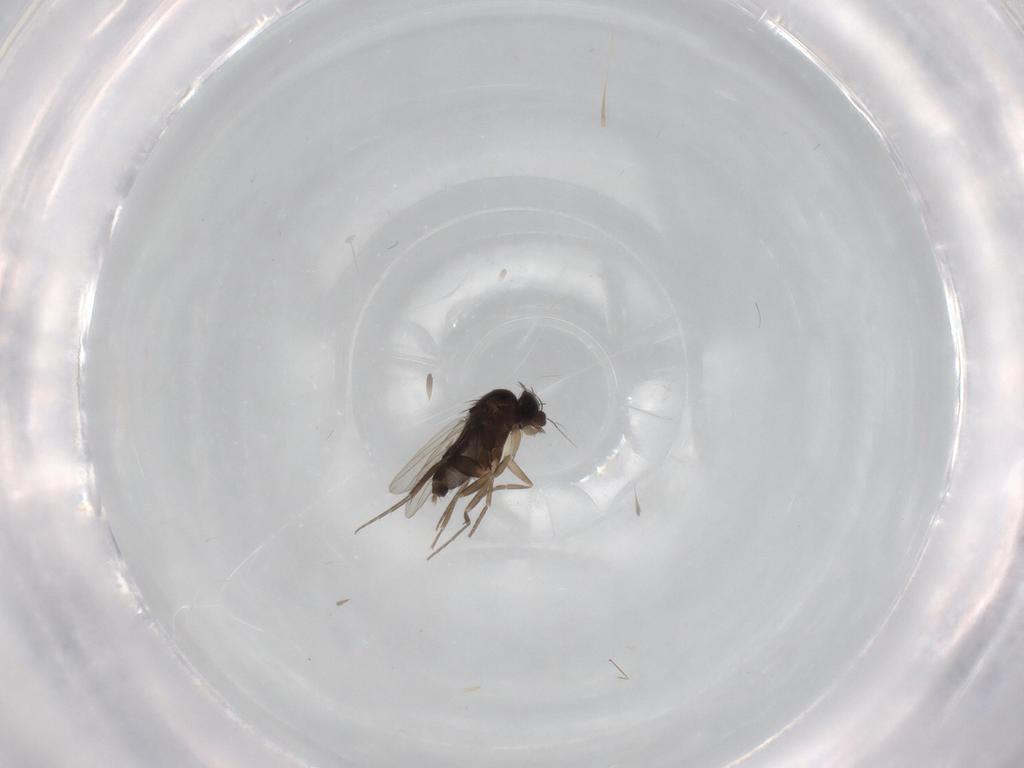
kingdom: Animalia
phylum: Arthropoda
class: Insecta
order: Diptera
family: Phoridae
